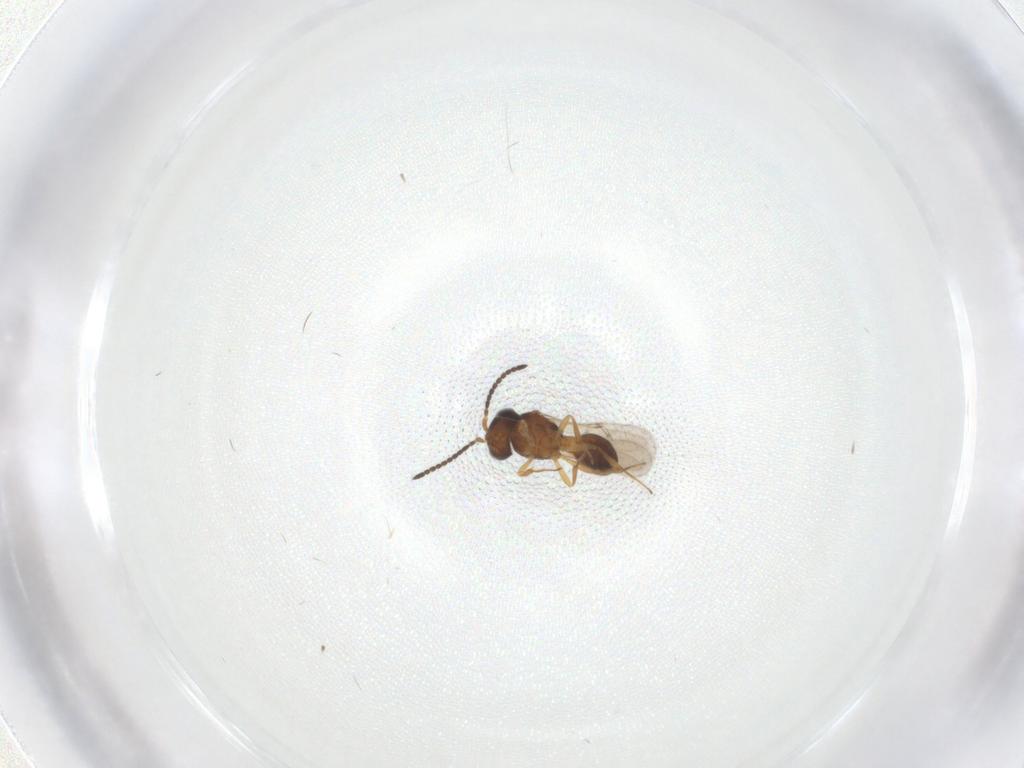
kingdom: Animalia
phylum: Arthropoda
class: Insecta
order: Hymenoptera
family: Scelionidae
